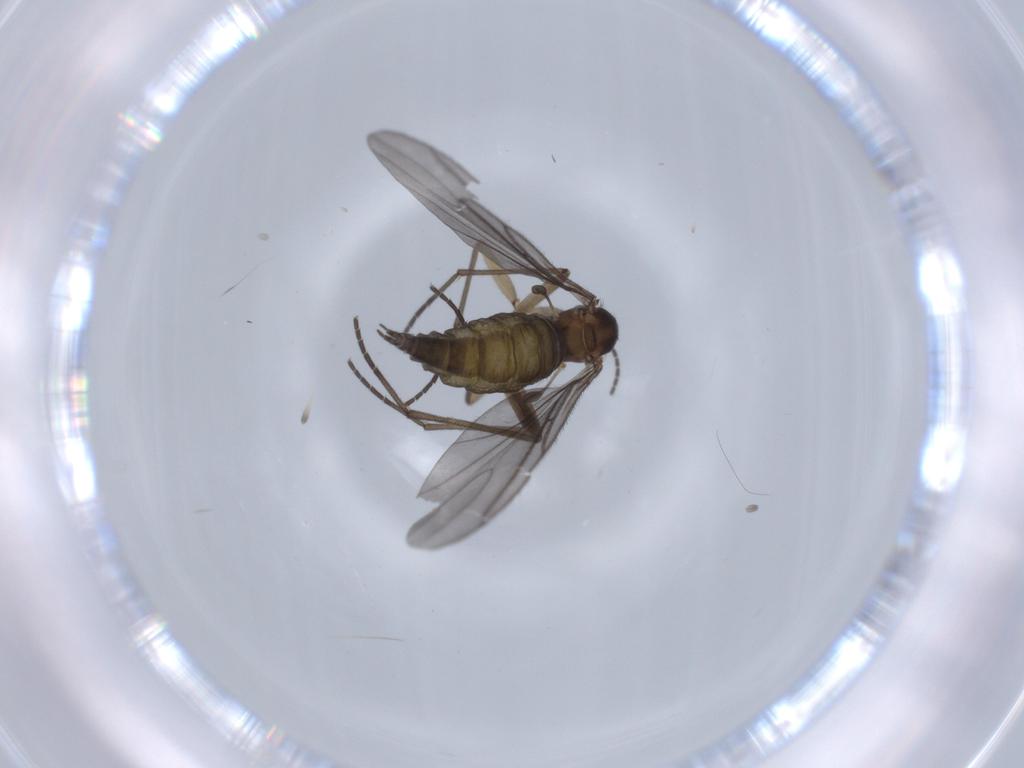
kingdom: Animalia
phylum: Arthropoda
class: Insecta
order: Diptera
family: Sciaridae
